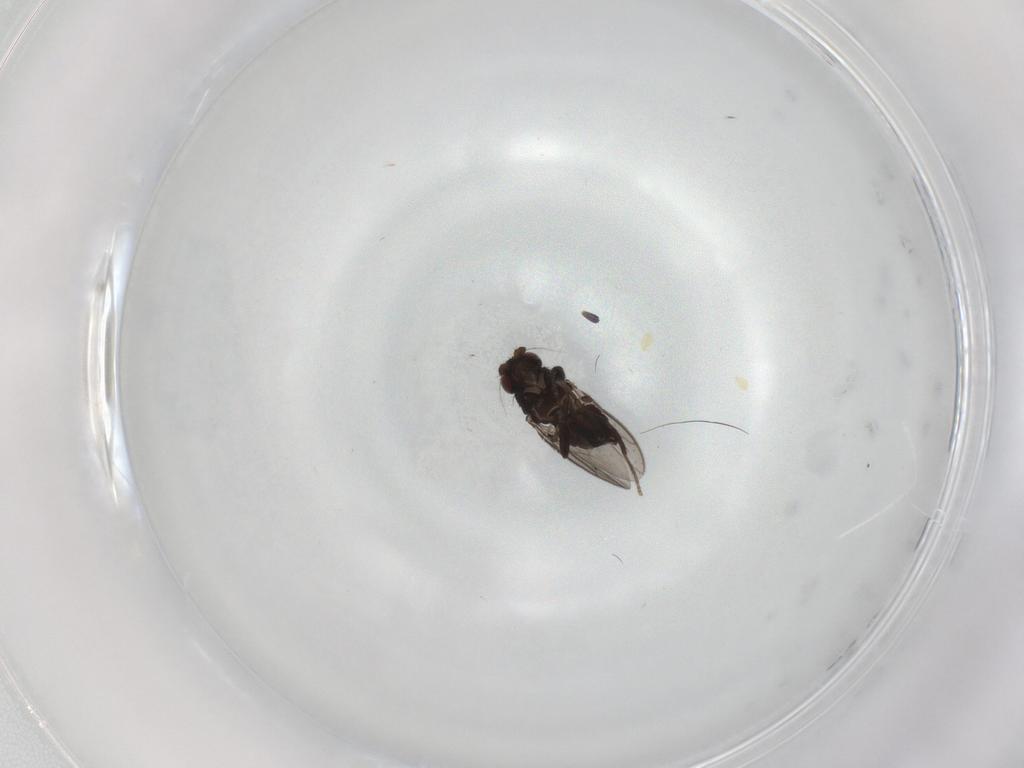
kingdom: Animalia
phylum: Arthropoda
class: Insecta
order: Diptera
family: Sphaeroceridae
